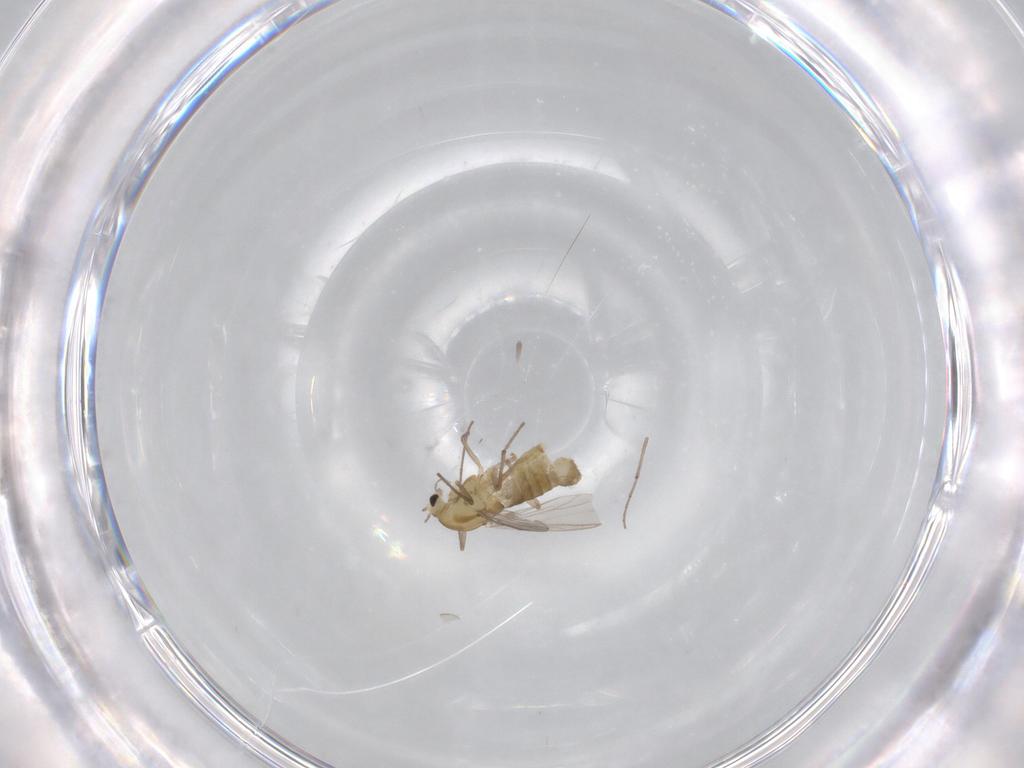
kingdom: Animalia
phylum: Arthropoda
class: Insecta
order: Diptera
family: Chironomidae
